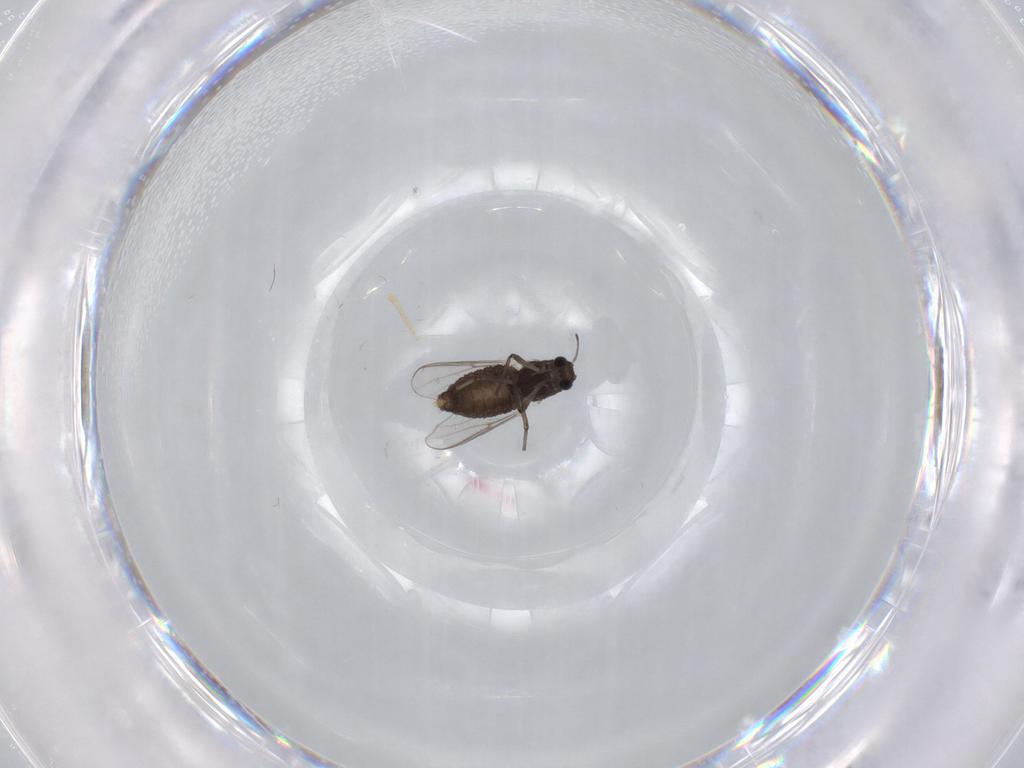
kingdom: Animalia
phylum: Arthropoda
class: Insecta
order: Diptera
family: Chironomidae
